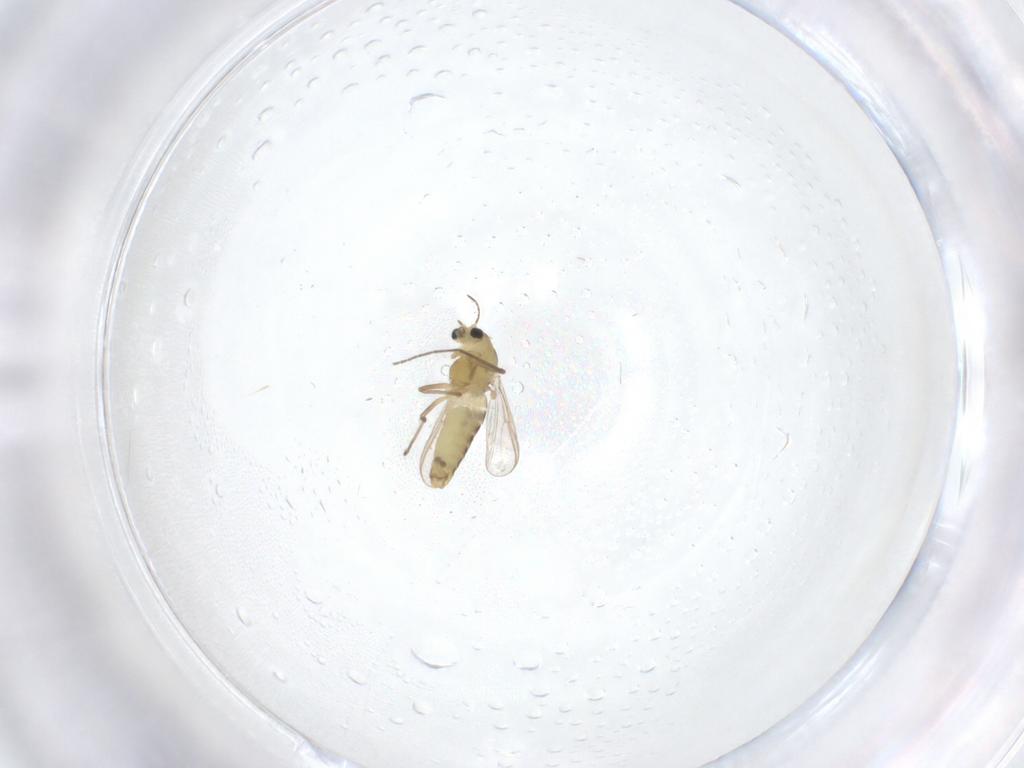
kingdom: Animalia
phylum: Arthropoda
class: Insecta
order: Diptera
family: Chironomidae
